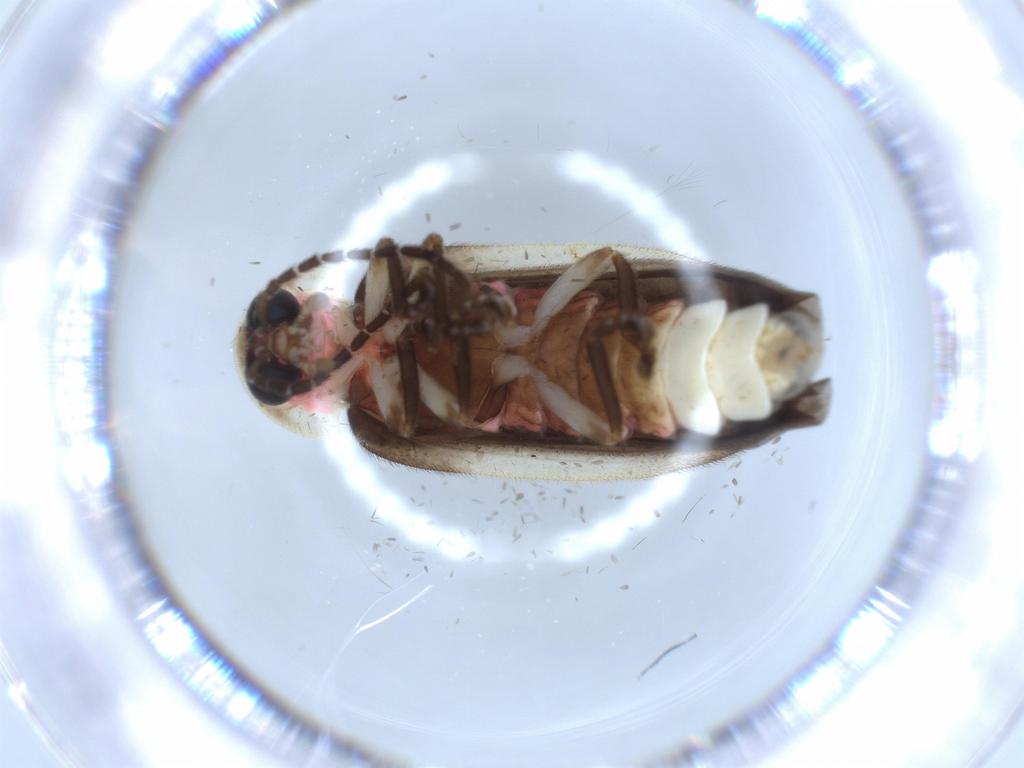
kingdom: Animalia
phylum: Arthropoda
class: Insecta
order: Coleoptera
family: Lampyridae
